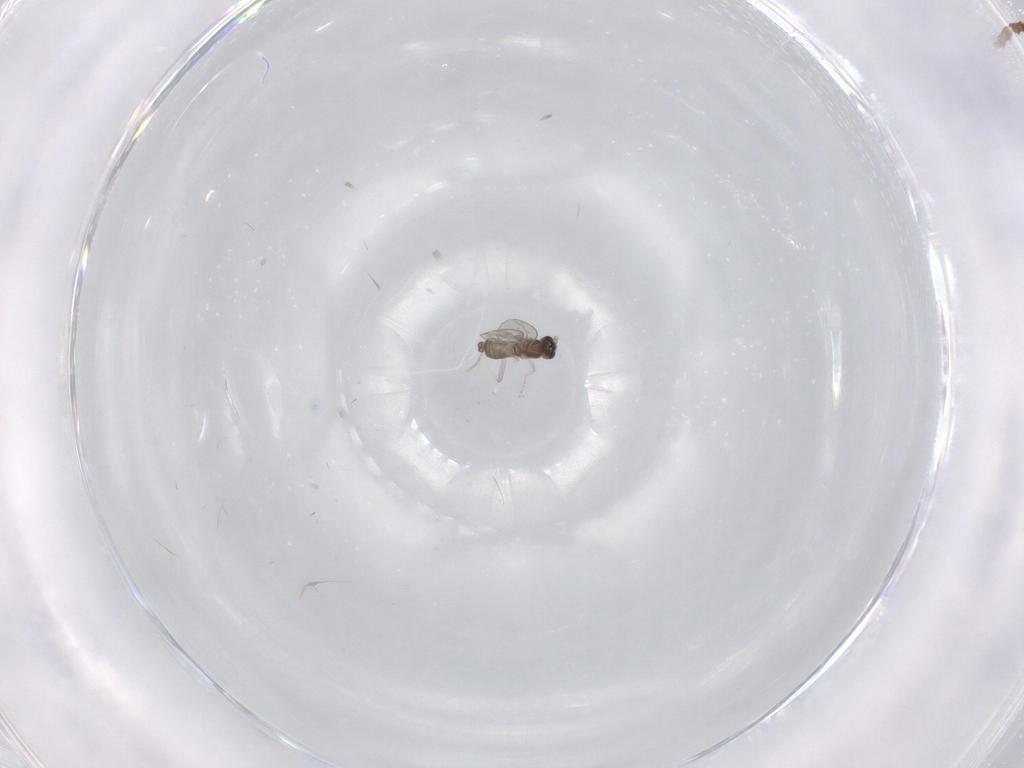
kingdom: Animalia
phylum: Arthropoda
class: Insecta
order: Diptera
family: Cecidomyiidae
